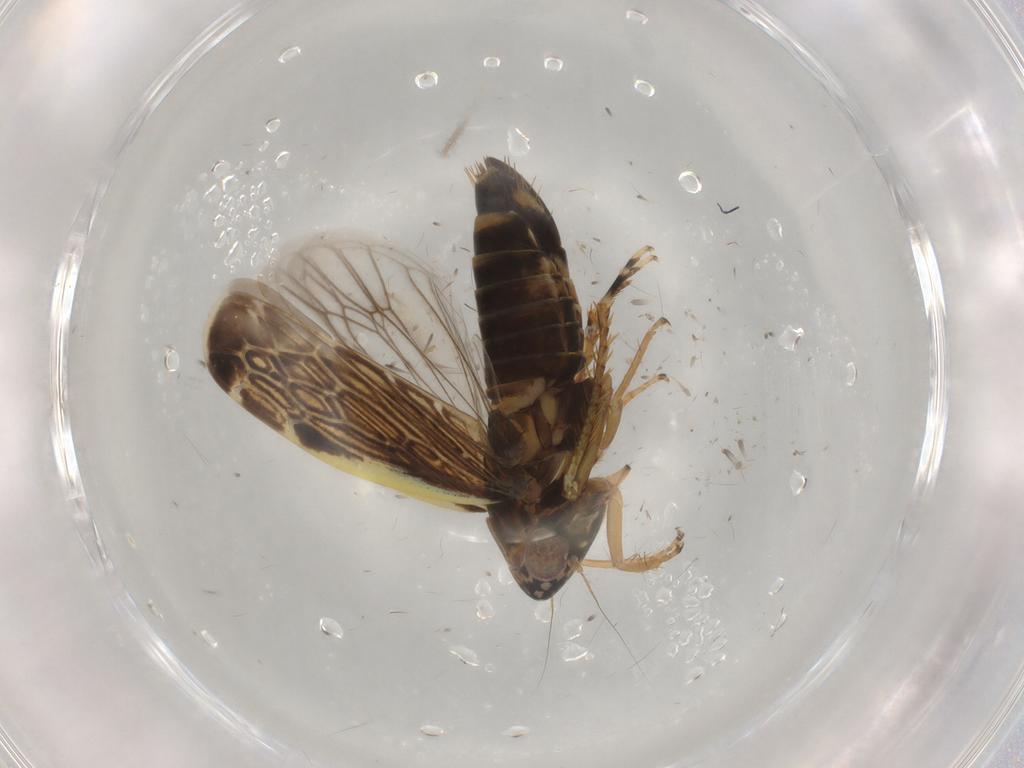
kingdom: Animalia
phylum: Arthropoda
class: Insecta
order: Hemiptera
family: Cicadellidae
